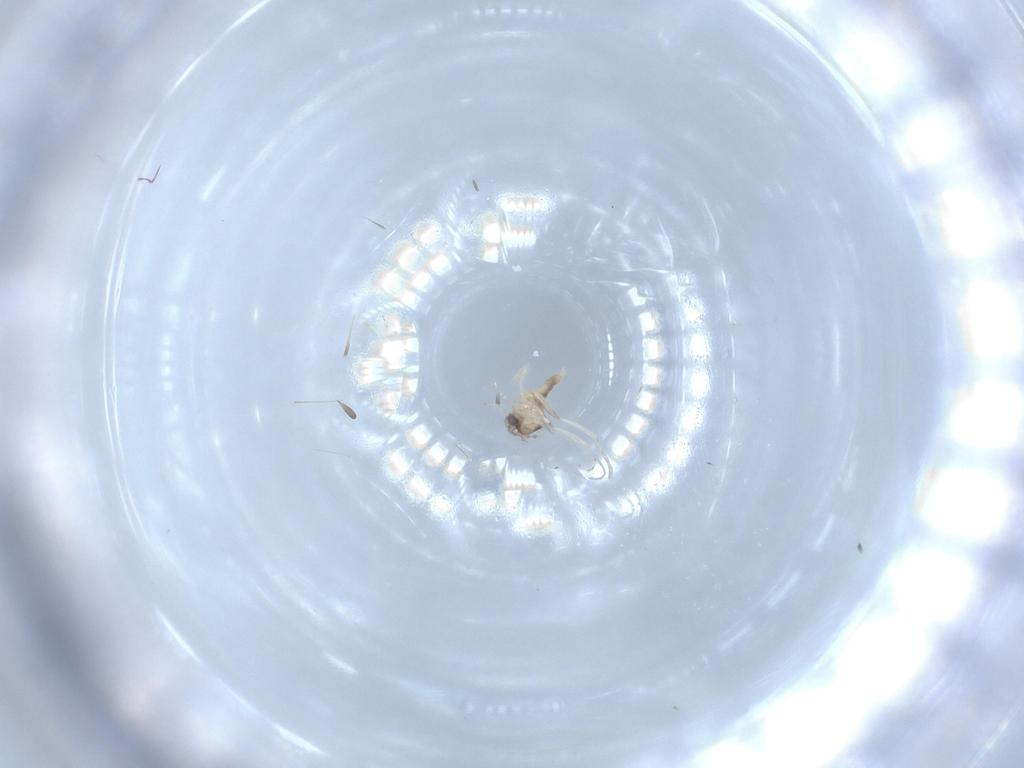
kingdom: Animalia
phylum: Arthropoda
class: Insecta
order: Diptera
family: Cecidomyiidae
